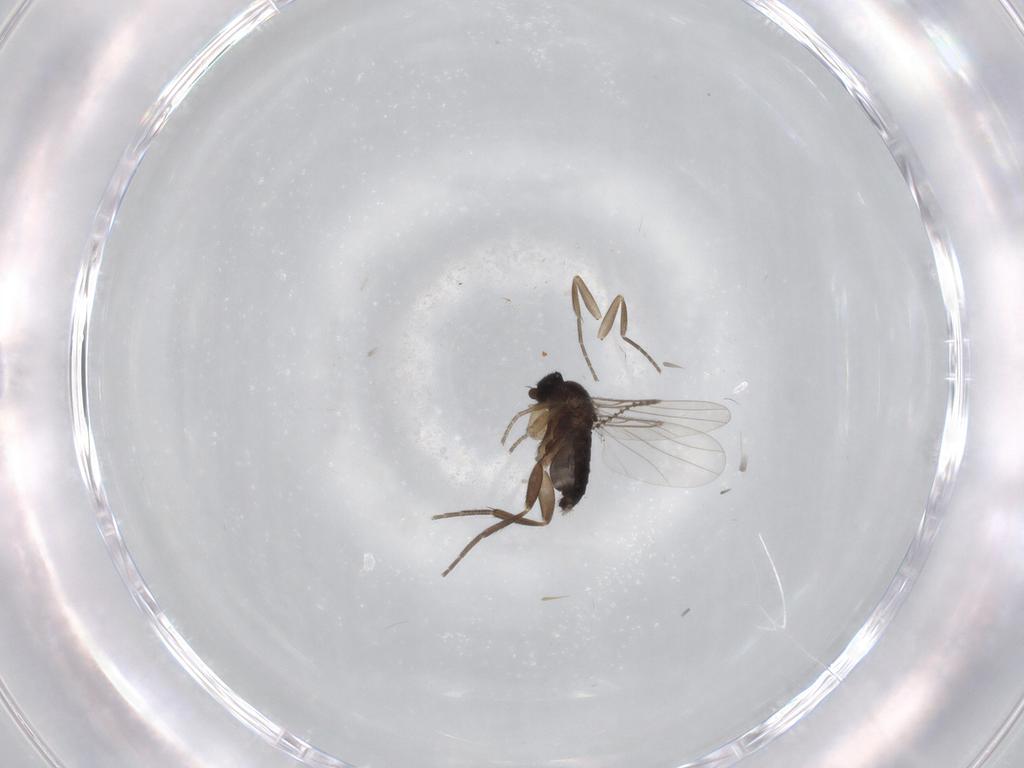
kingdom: Animalia
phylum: Arthropoda
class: Insecta
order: Diptera
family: Phoridae
